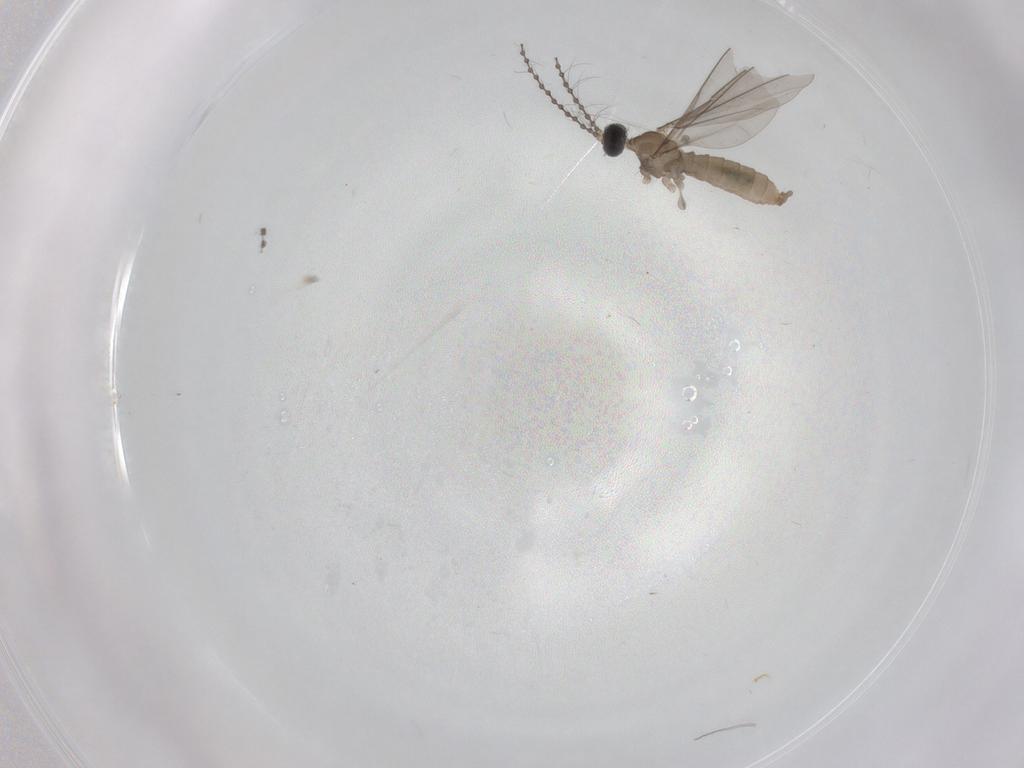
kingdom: Animalia
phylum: Arthropoda
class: Insecta
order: Diptera
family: Cecidomyiidae
